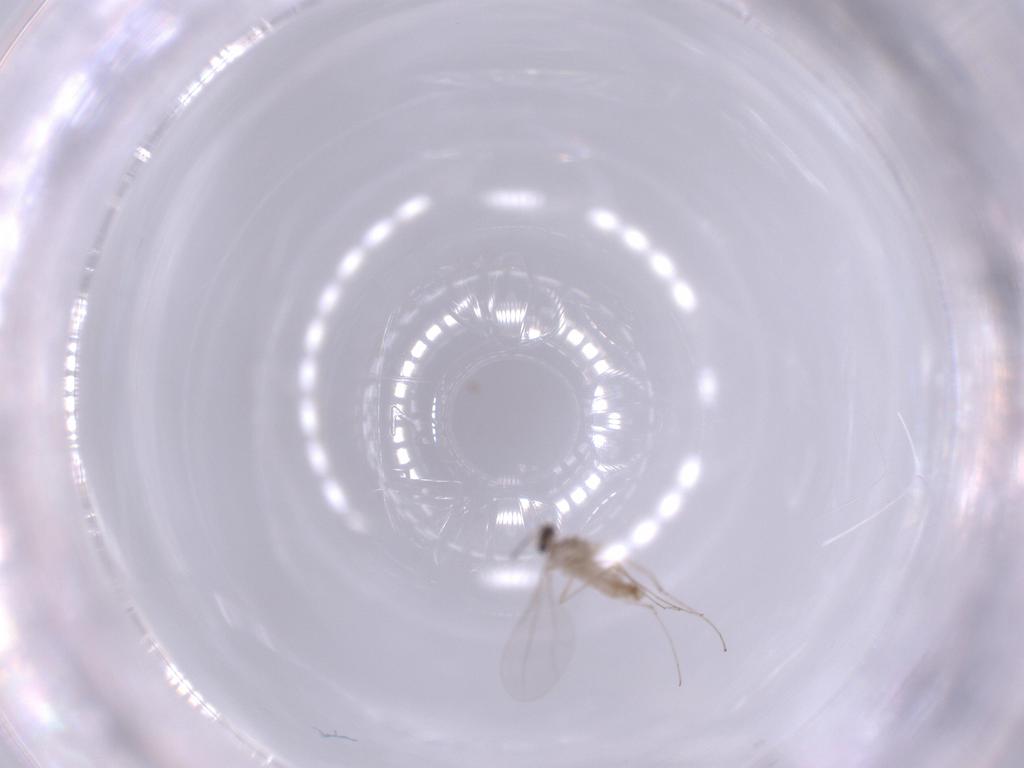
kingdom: Animalia
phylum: Arthropoda
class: Insecta
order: Diptera
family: Cecidomyiidae
